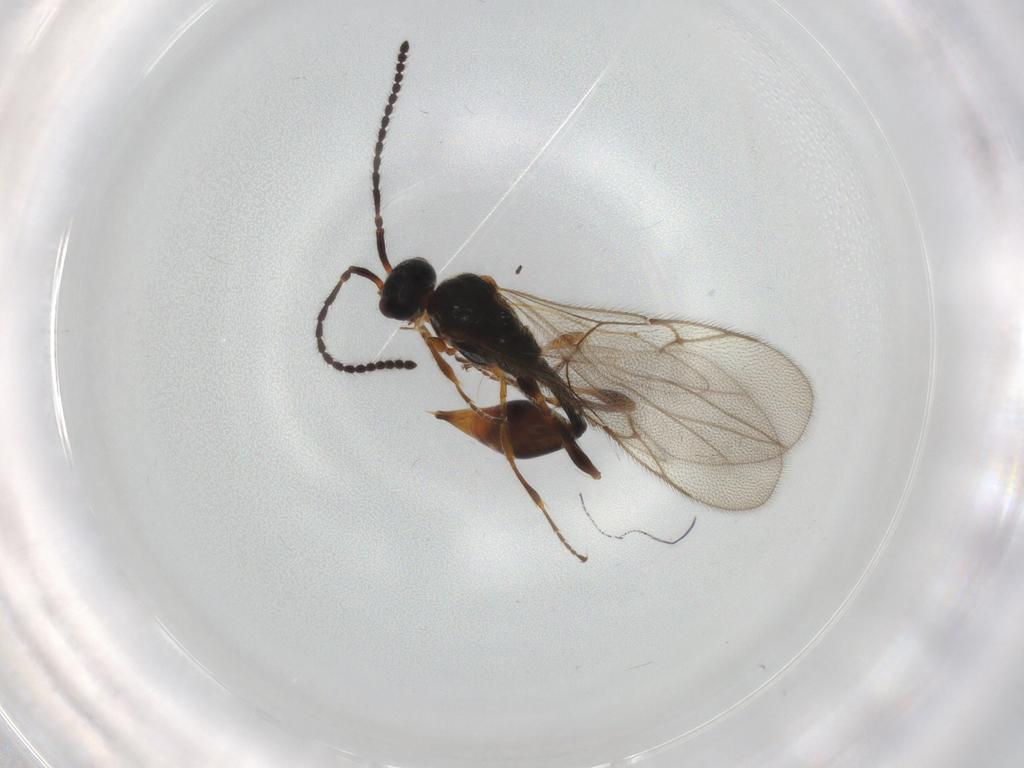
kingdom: Animalia
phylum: Arthropoda
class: Insecta
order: Hymenoptera
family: Diapriidae
